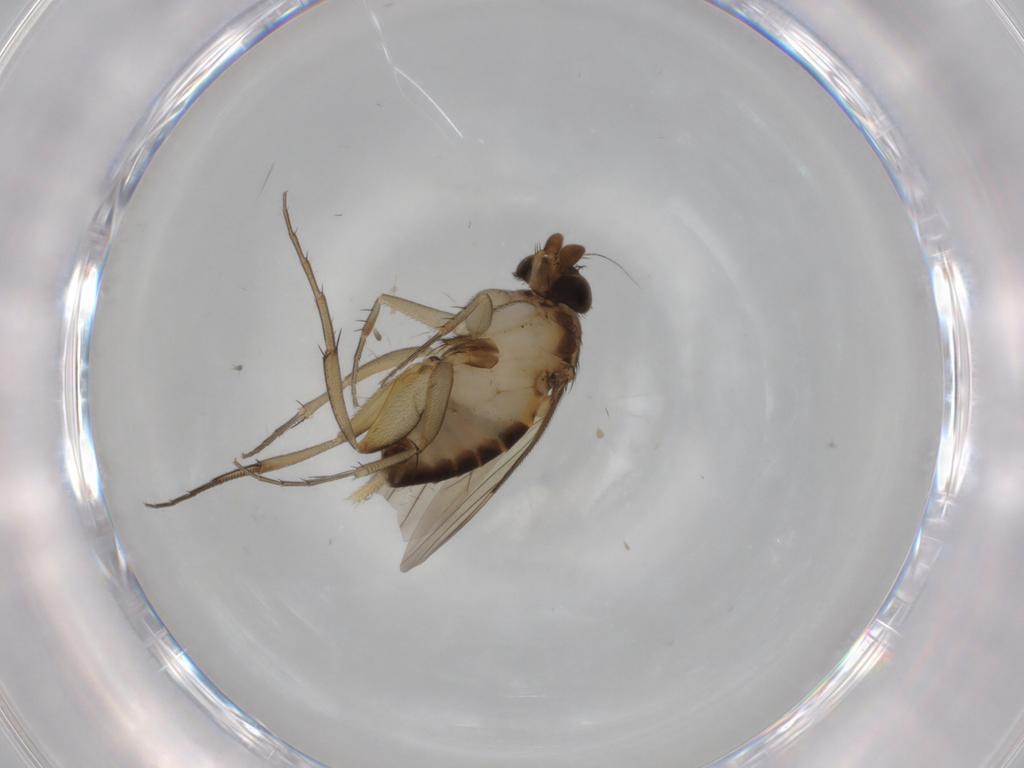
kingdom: Animalia
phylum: Arthropoda
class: Insecta
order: Diptera
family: Phoridae
